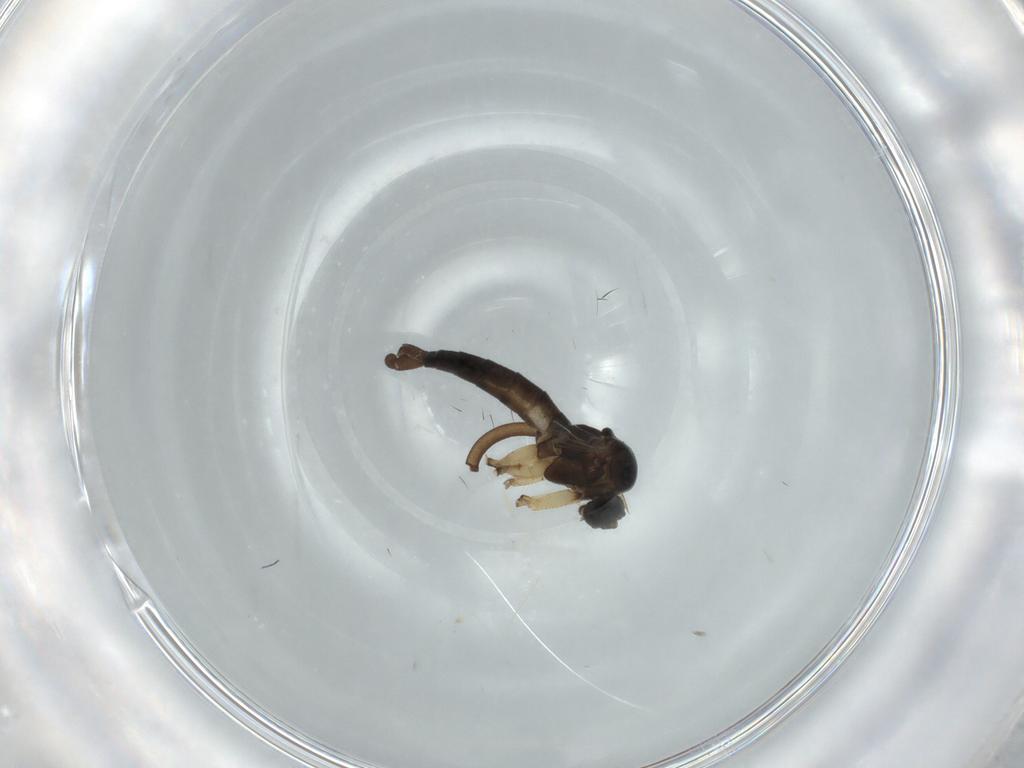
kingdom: Animalia
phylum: Arthropoda
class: Insecta
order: Diptera
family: Sciaridae
